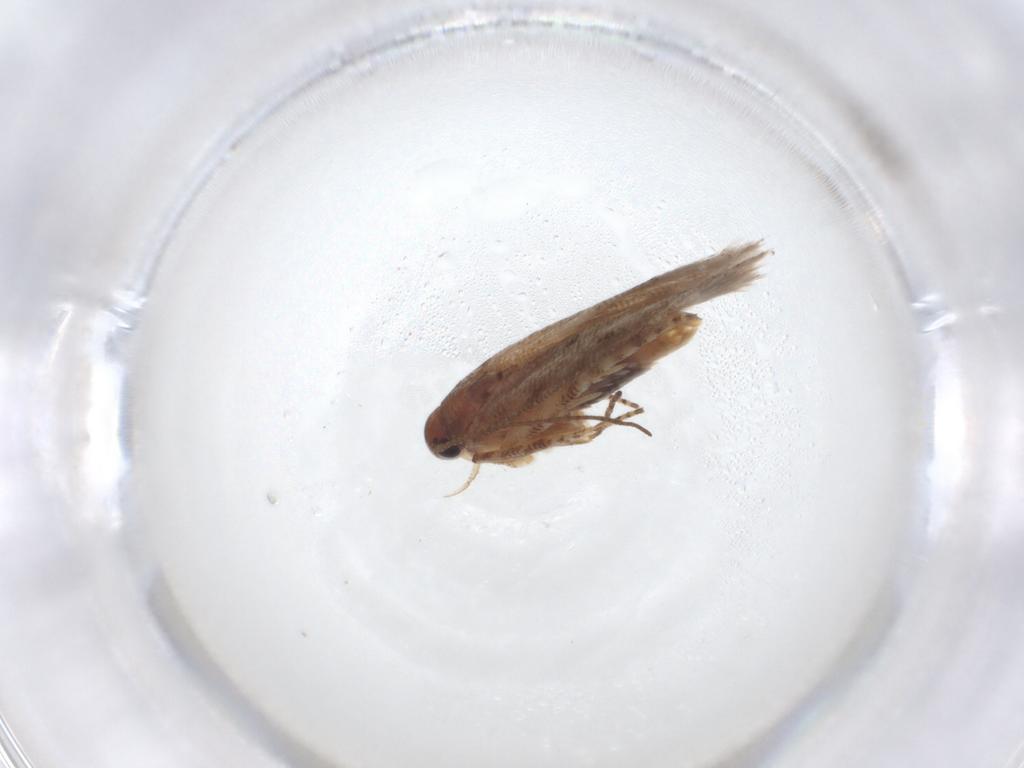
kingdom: Animalia
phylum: Arthropoda
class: Insecta
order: Lepidoptera
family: Gelechiidae
